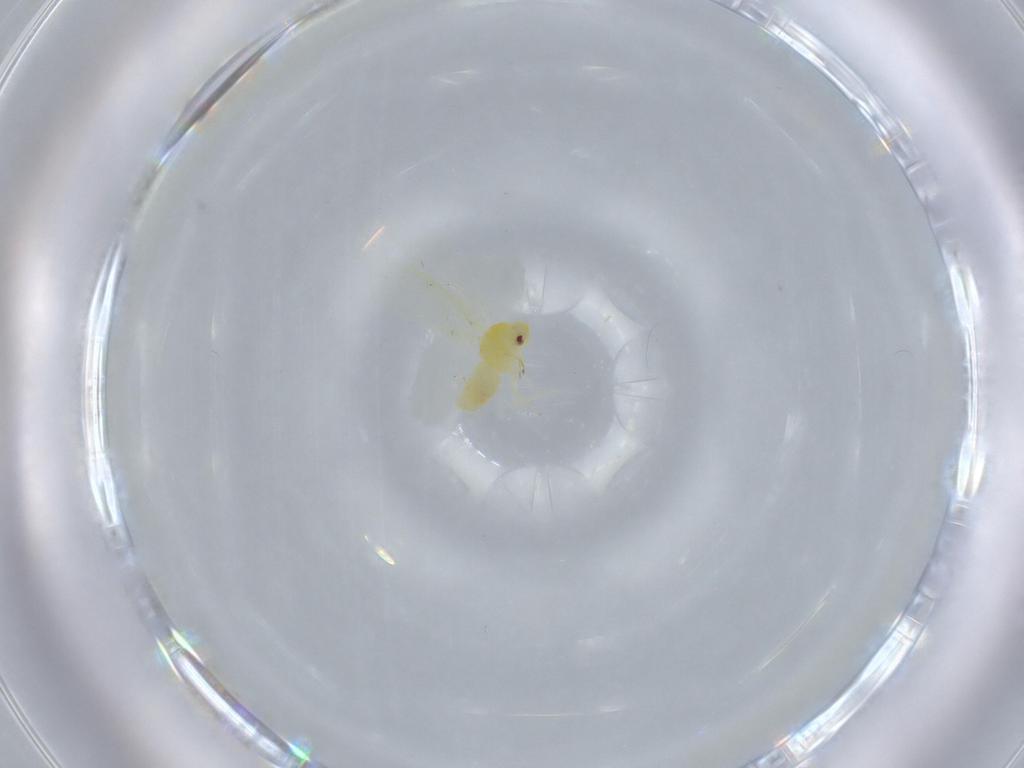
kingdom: Animalia
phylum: Arthropoda
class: Insecta
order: Hemiptera
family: Aleyrodidae
